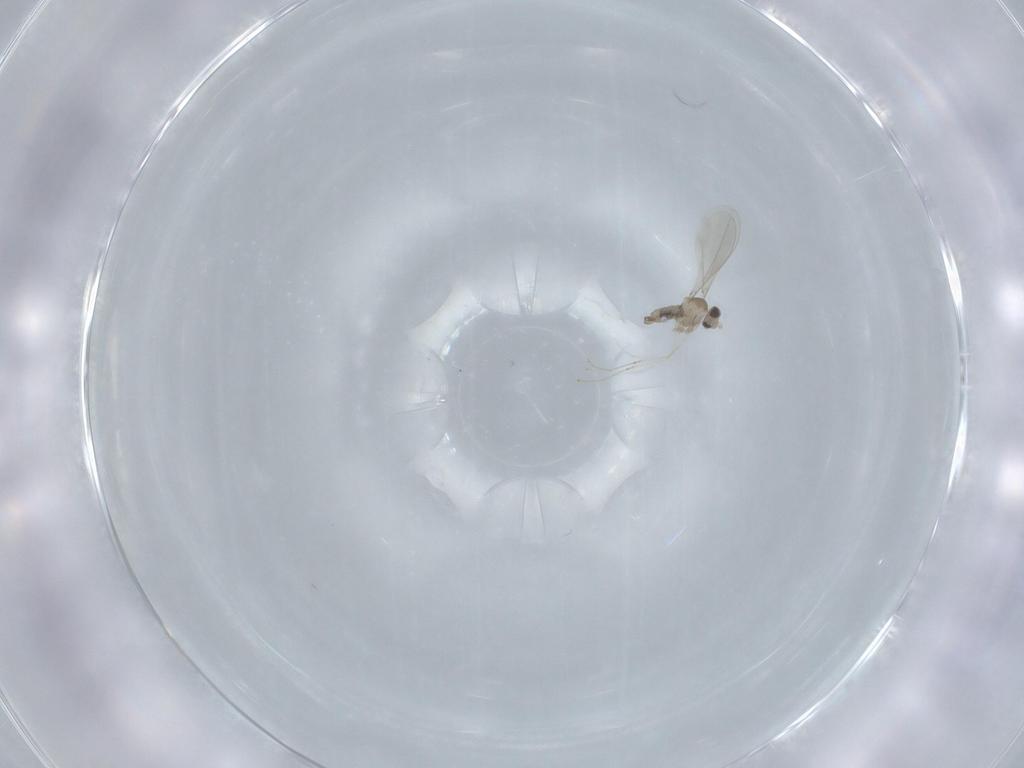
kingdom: Animalia
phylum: Arthropoda
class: Insecta
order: Diptera
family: Cecidomyiidae
